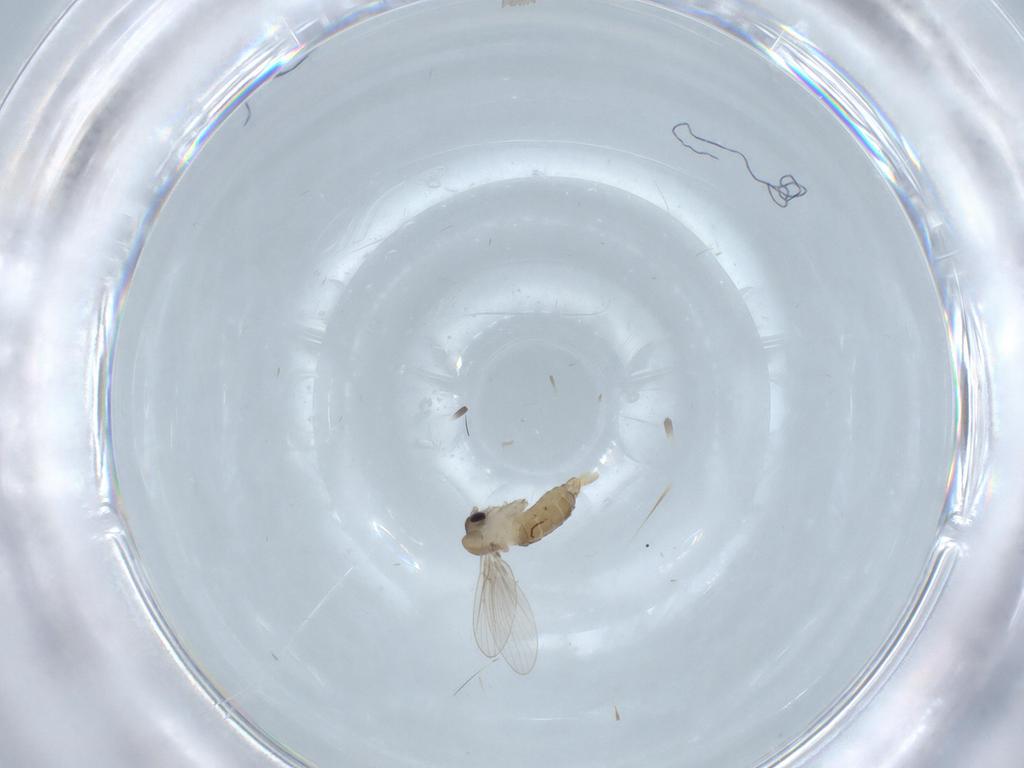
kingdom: Animalia
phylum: Arthropoda
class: Insecta
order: Diptera
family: Psychodidae
